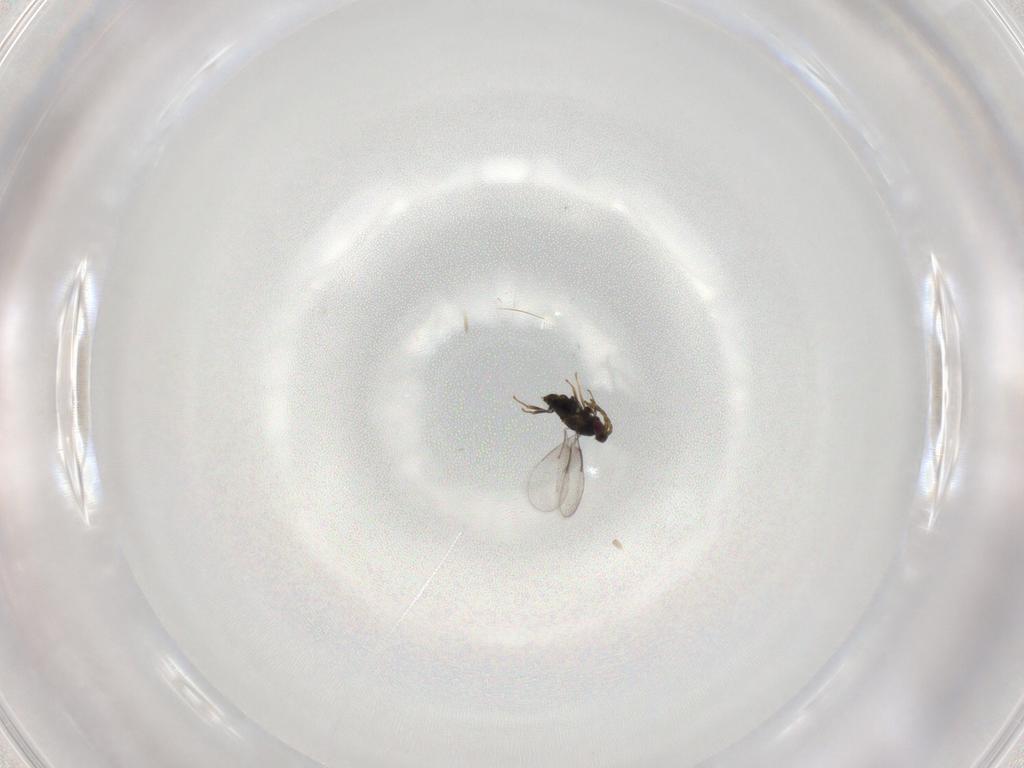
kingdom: Animalia
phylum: Arthropoda
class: Insecta
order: Hymenoptera
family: Aphelinidae
